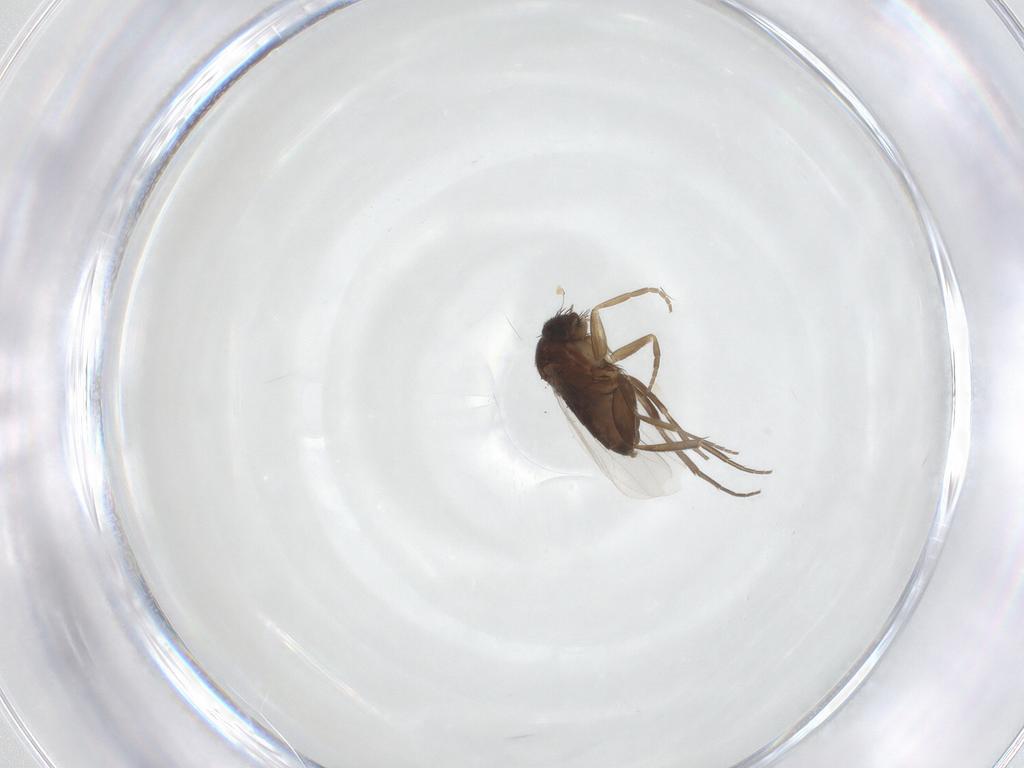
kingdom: Animalia
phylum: Arthropoda
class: Insecta
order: Diptera
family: Phoridae
